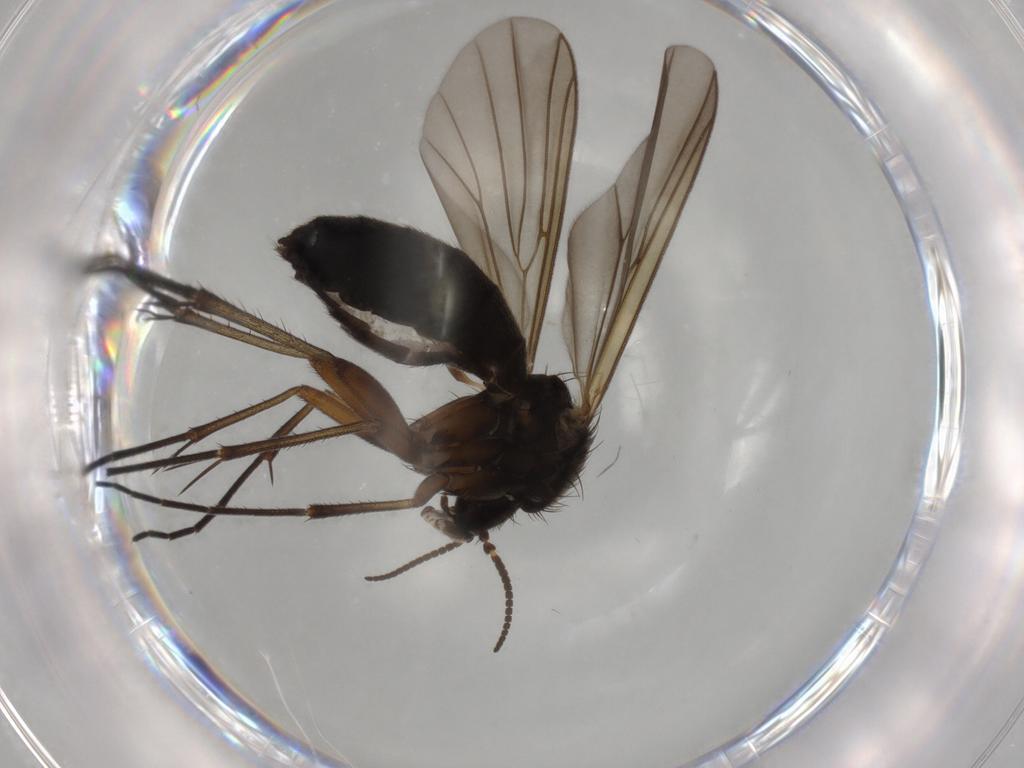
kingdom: Animalia
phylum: Arthropoda
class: Insecta
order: Diptera
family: Mycetophilidae
